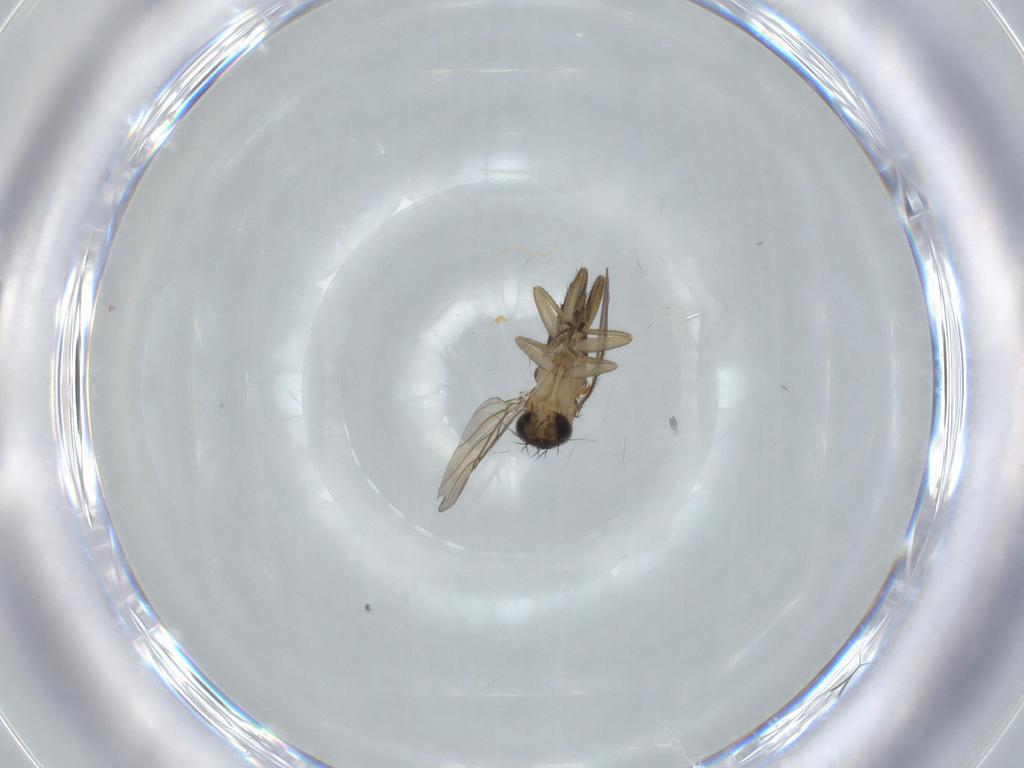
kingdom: Animalia
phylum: Arthropoda
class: Insecta
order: Diptera
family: Phoridae
